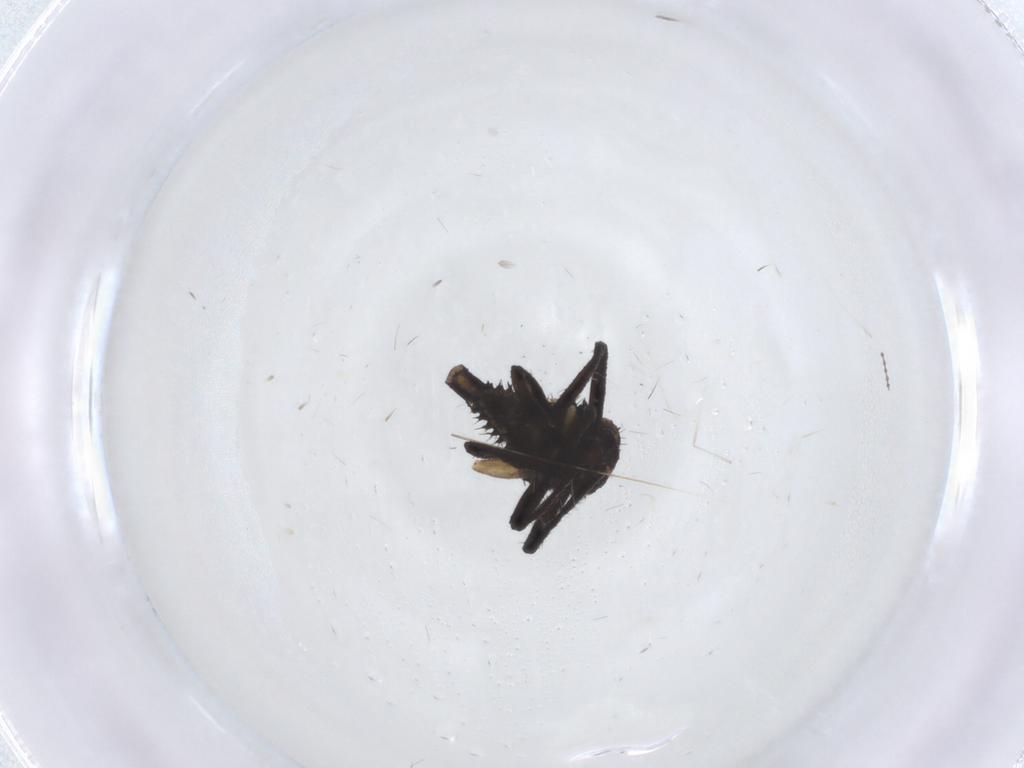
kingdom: Animalia
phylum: Arthropoda
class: Insecta
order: Diptera
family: Phoridae
